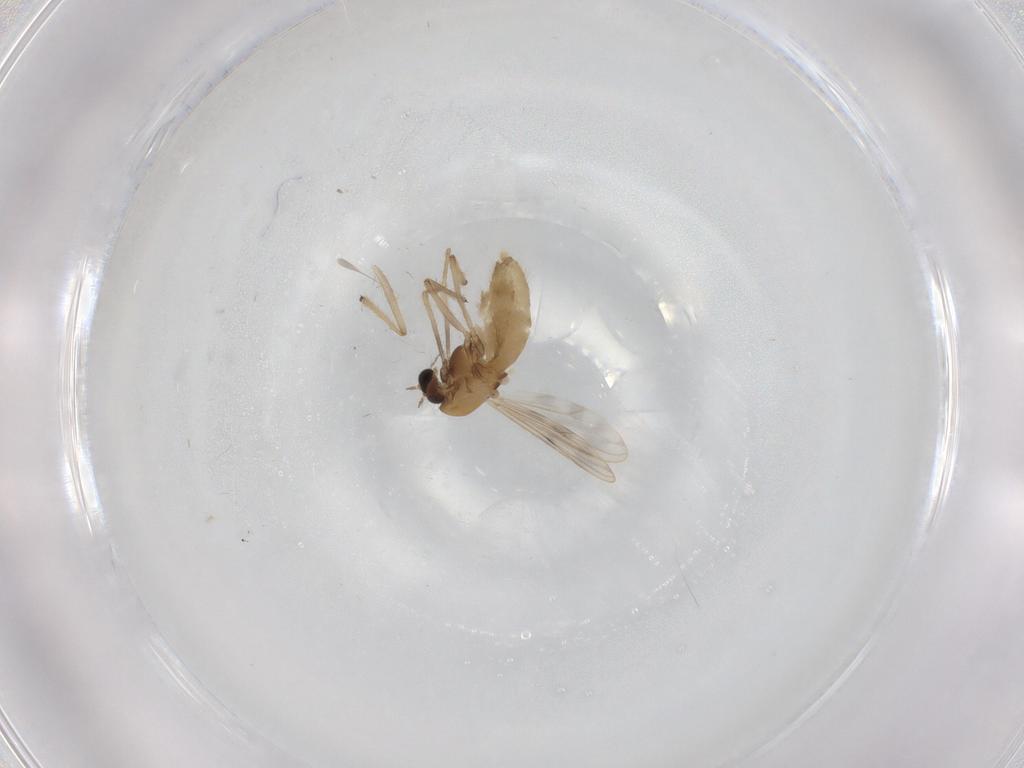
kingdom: Animalia
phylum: Arthropoda
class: Insecta
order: Diptera
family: Chironomidae
